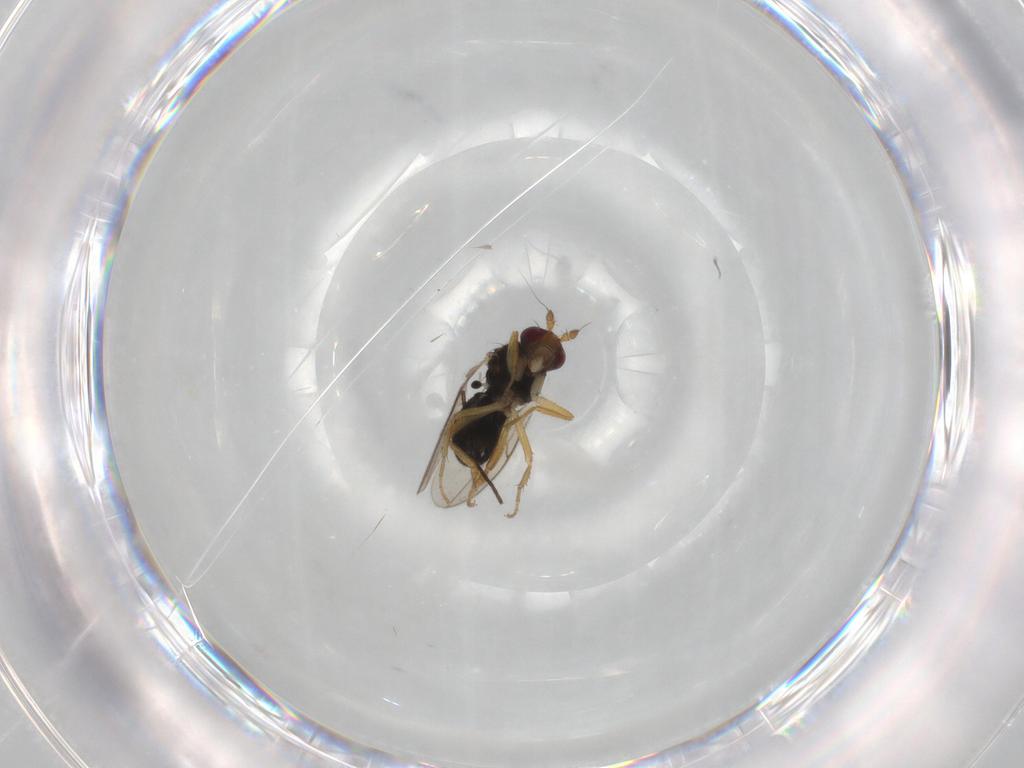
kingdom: Animalia
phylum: Arthropoda
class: Insecta
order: Diptera
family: Sphaeroceridae
